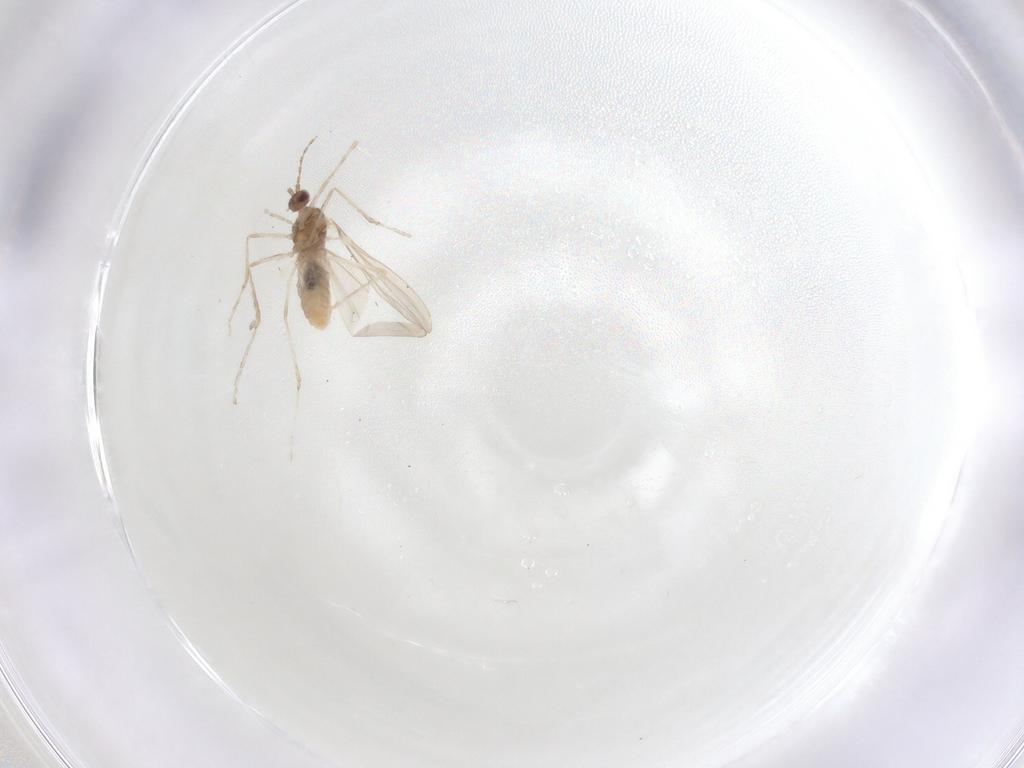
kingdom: Animalia
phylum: Arthropoda
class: Insecta
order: Diptera
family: Cecidomyiidae
